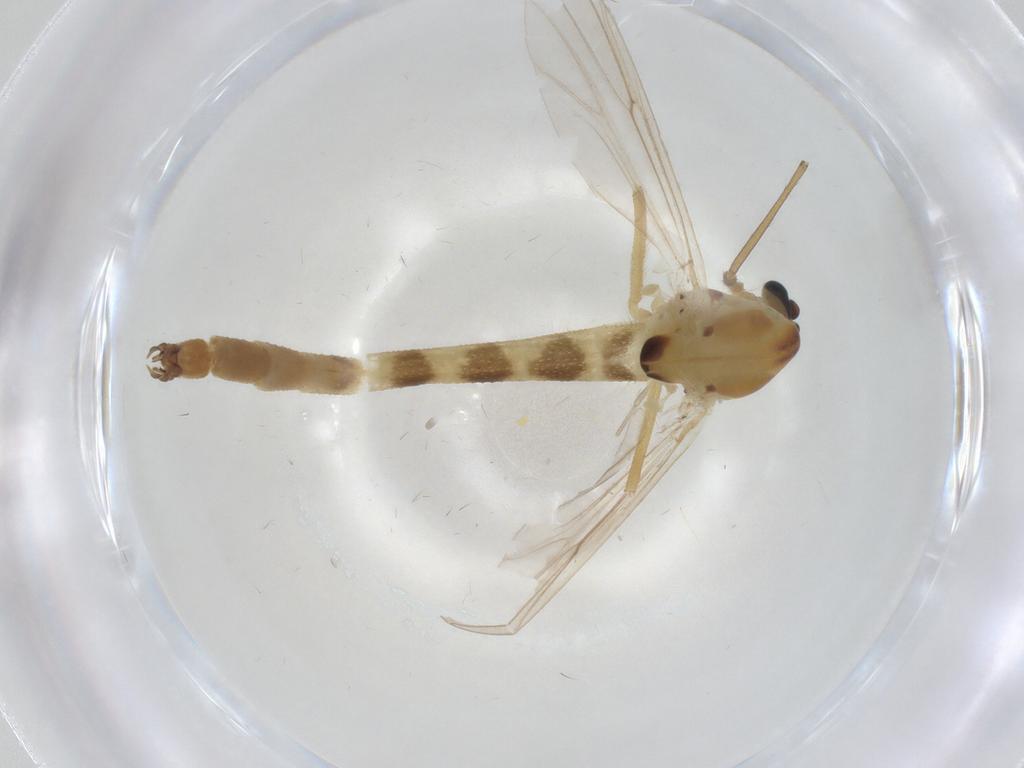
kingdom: Animalia
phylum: Arthropoda
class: Insecta
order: Diptera
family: Chironomidae
